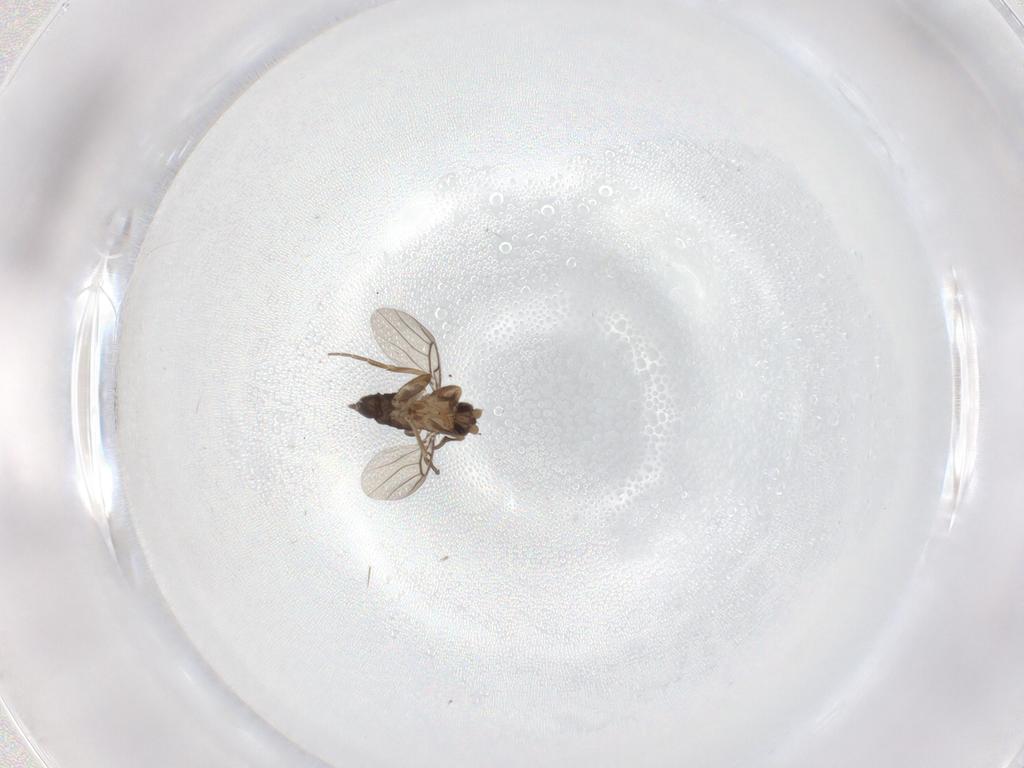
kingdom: Animalia
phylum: Arthropoda
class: Insecta
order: Diptera
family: Phoridae
